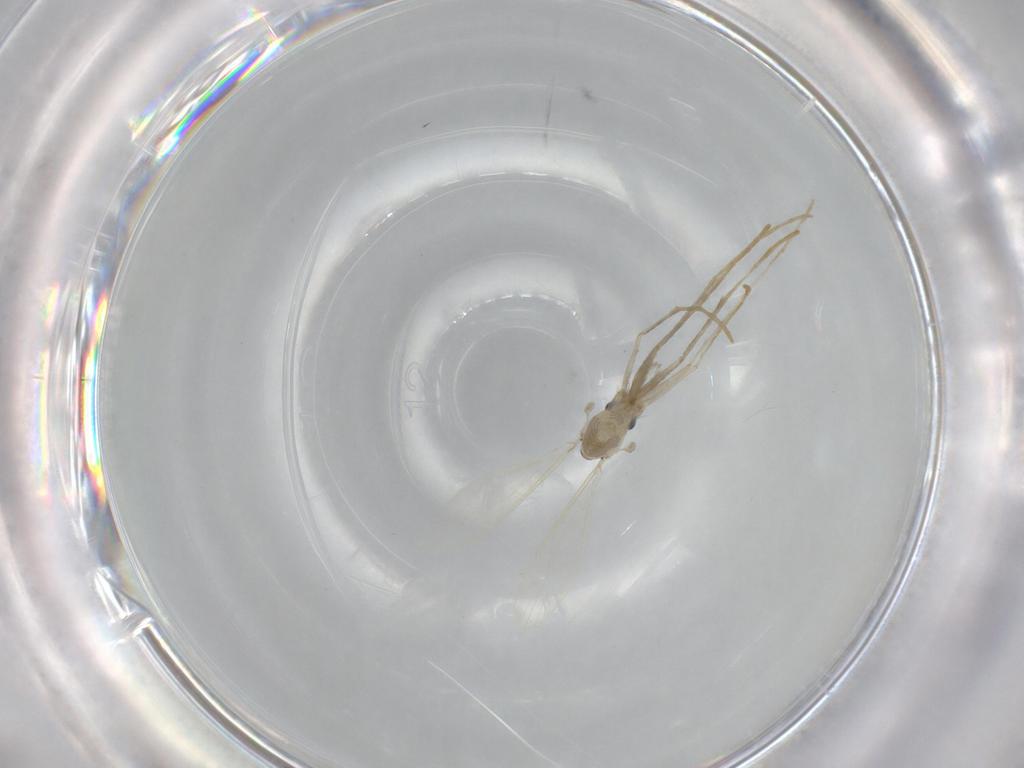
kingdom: Animalia
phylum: Arthropoda
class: Insecta
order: Diptera
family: Psychodidae
